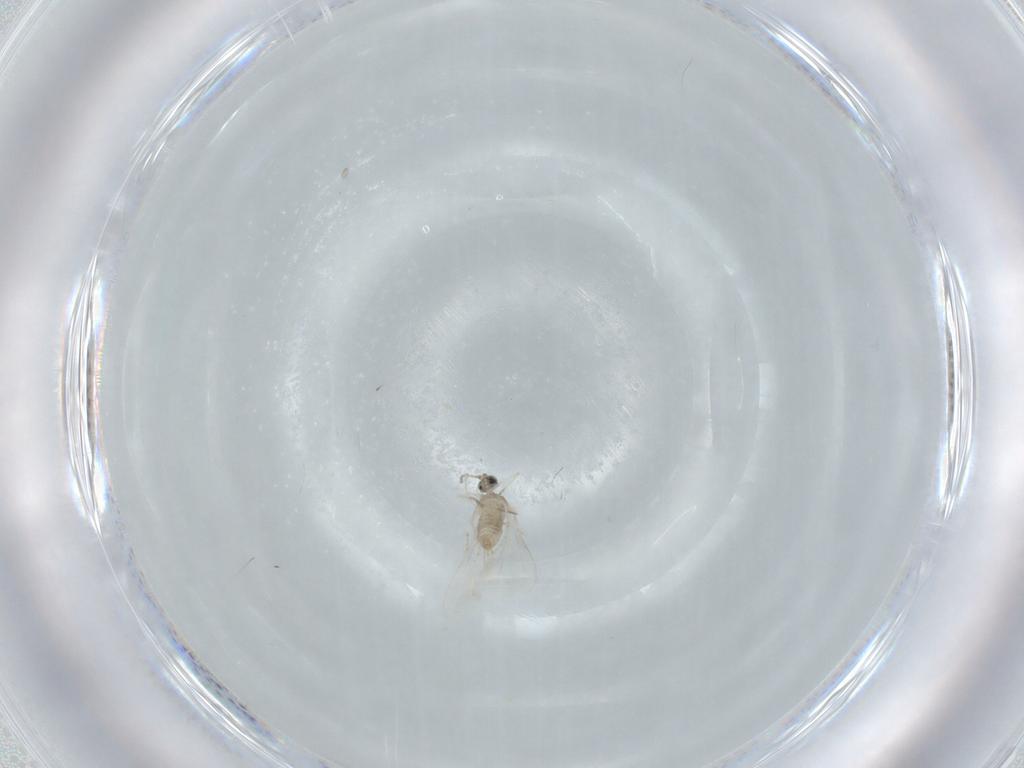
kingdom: Animalia
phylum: Arthropoda
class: Insecta
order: Diptera
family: Cecidomyiidae
